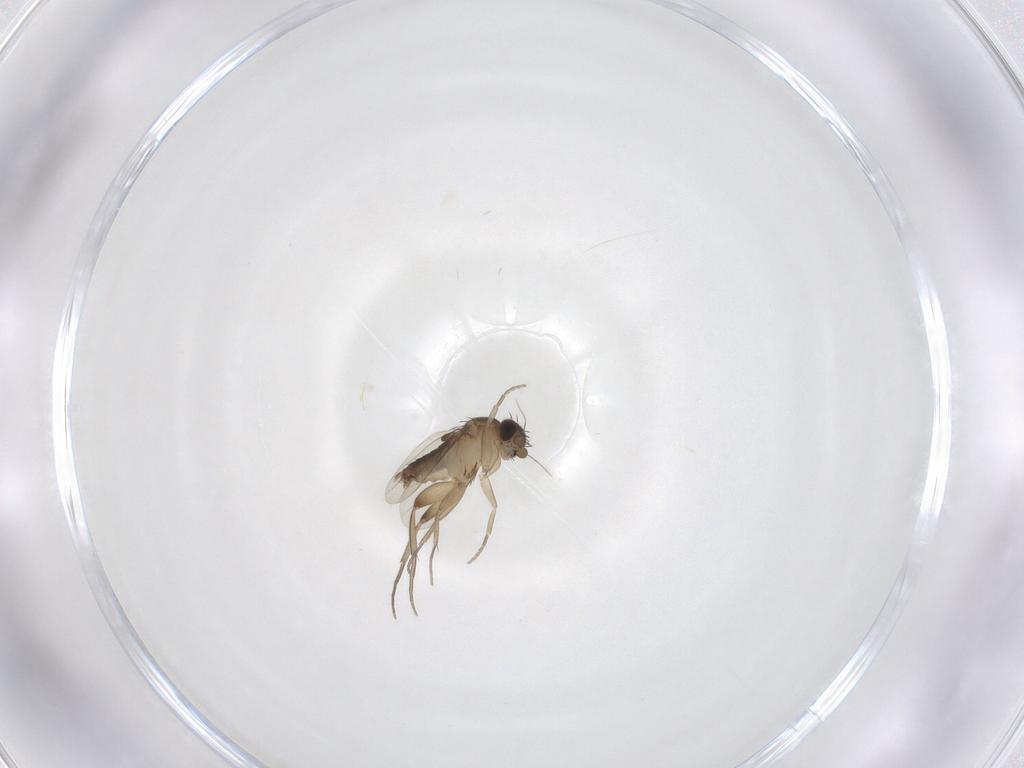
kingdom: Animalia
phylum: Arthropoda
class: Insecta
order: Diptera
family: Phoridae
